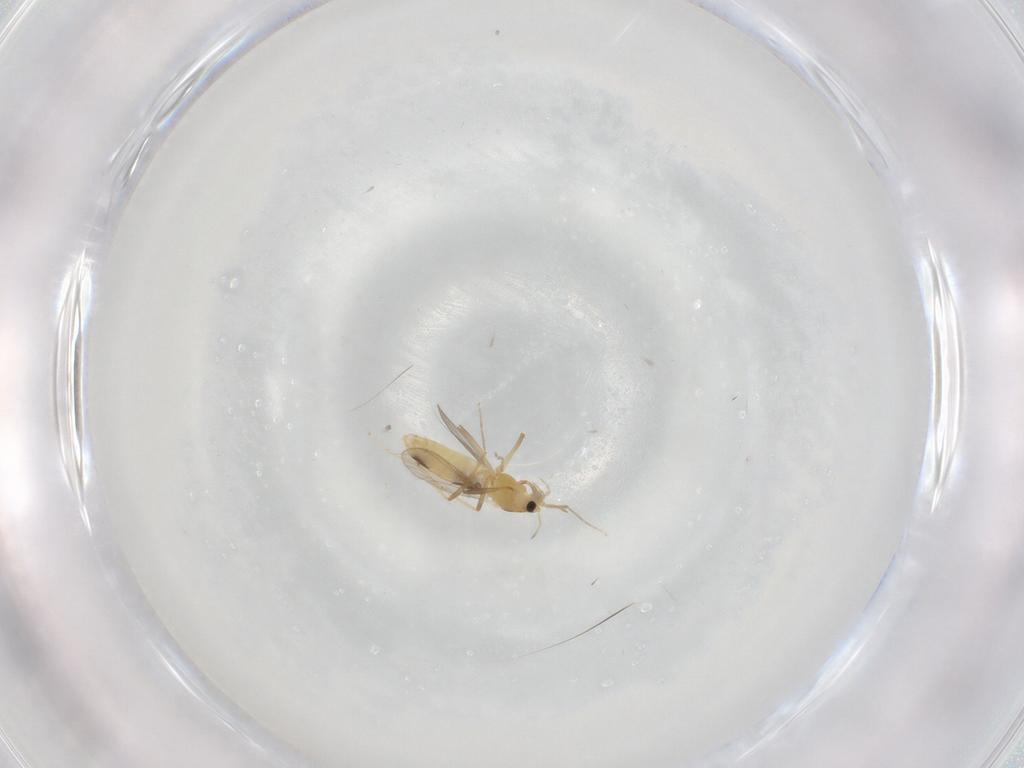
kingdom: Animalia
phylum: Arthropoda
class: Insecta
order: Diptera
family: Chironomidae
